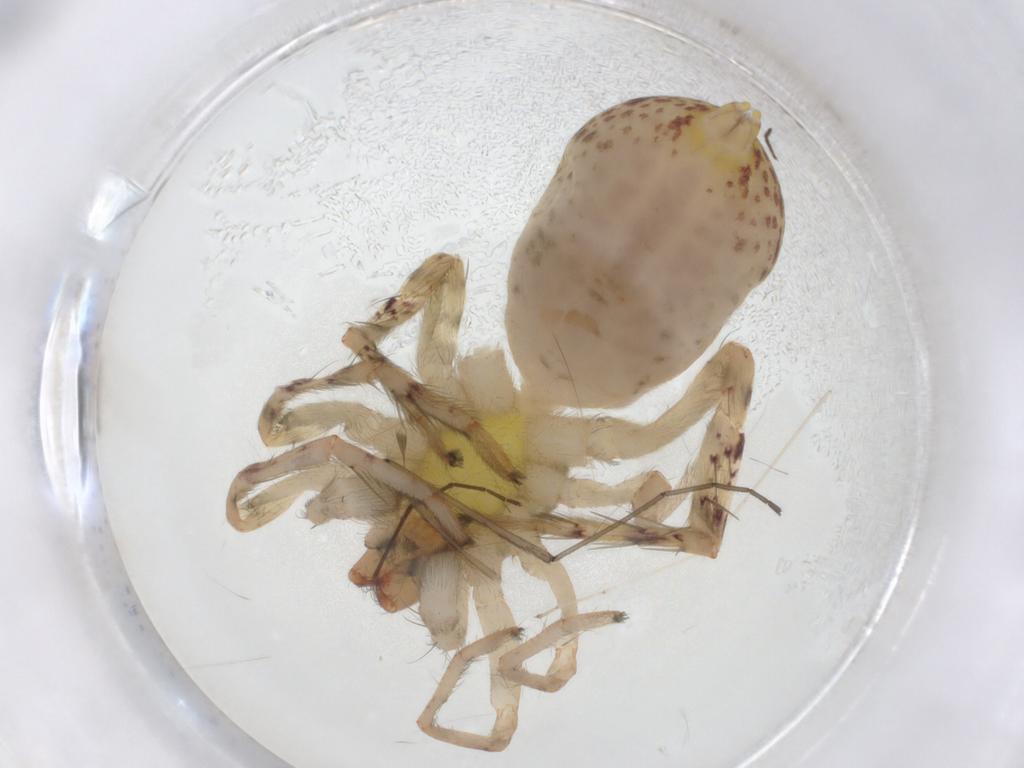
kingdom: Animalia
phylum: Arthropoda
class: Arachnida
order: Araneae
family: Anyphaenidae
